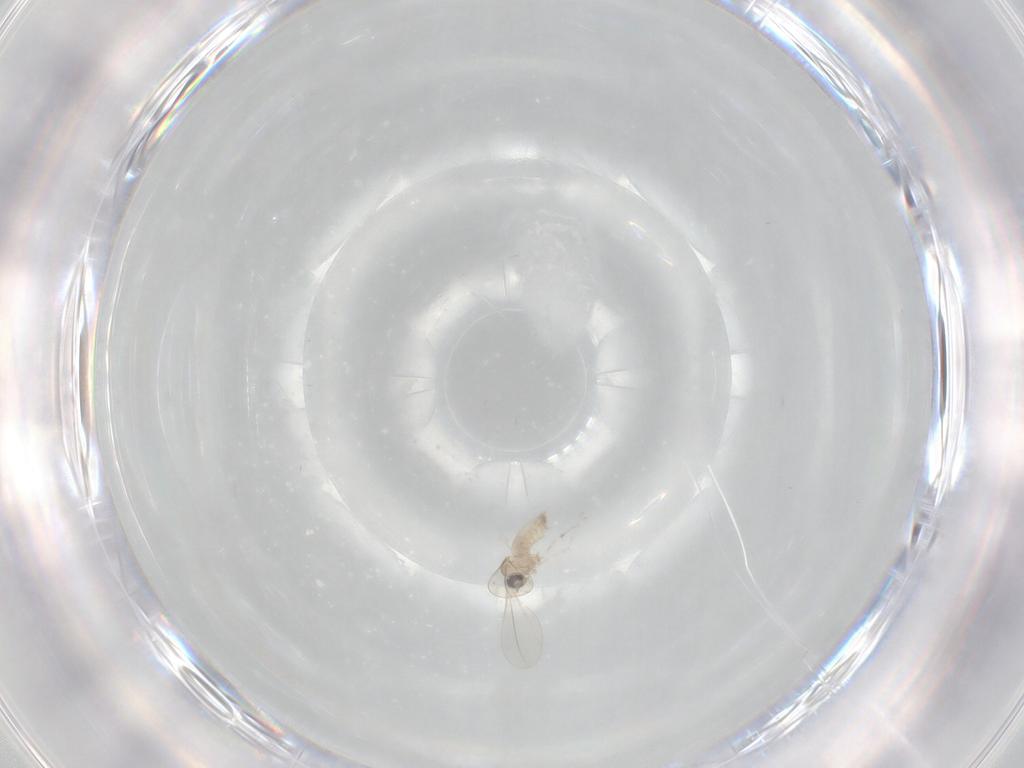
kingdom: Animalia
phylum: Arthropoda
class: Insecta
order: Diptera
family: Cecidomyiidae
